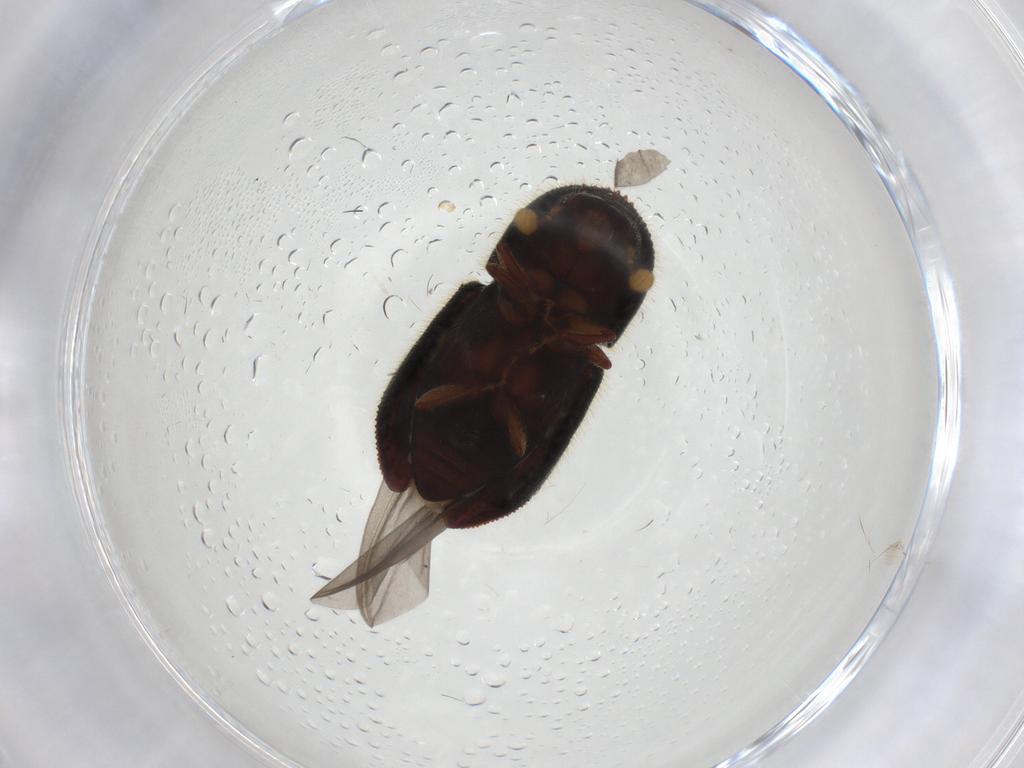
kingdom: Animalia
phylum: Arthropoda
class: Insecta
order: Coleoptera
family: Curculionidae
